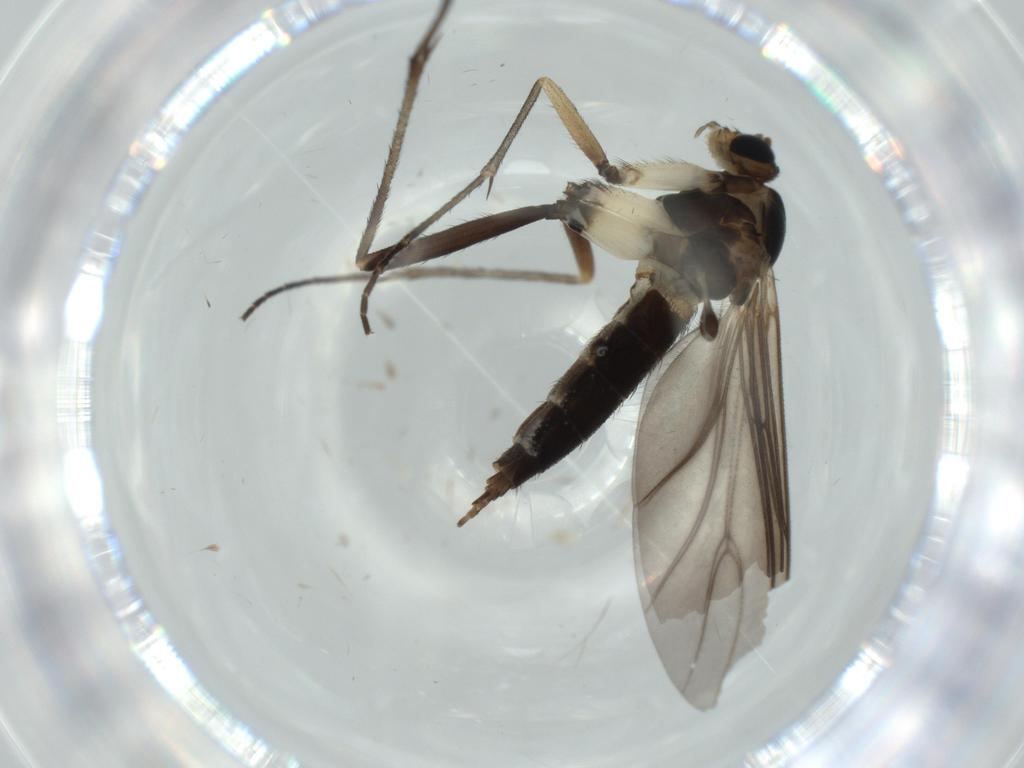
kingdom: Animalia
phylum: Arthropoda
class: Insecta
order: Diptera
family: Sciaridae
